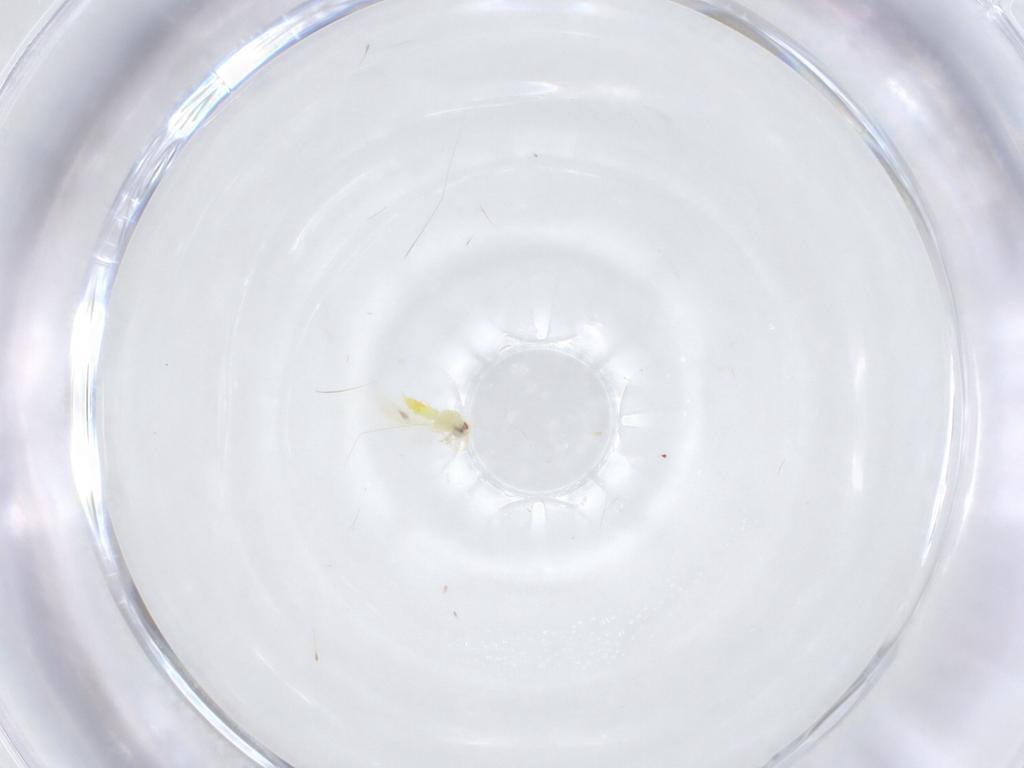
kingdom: Animalia
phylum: Arthropoda
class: Insecta
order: Hemiptera
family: Aleyrodidae
